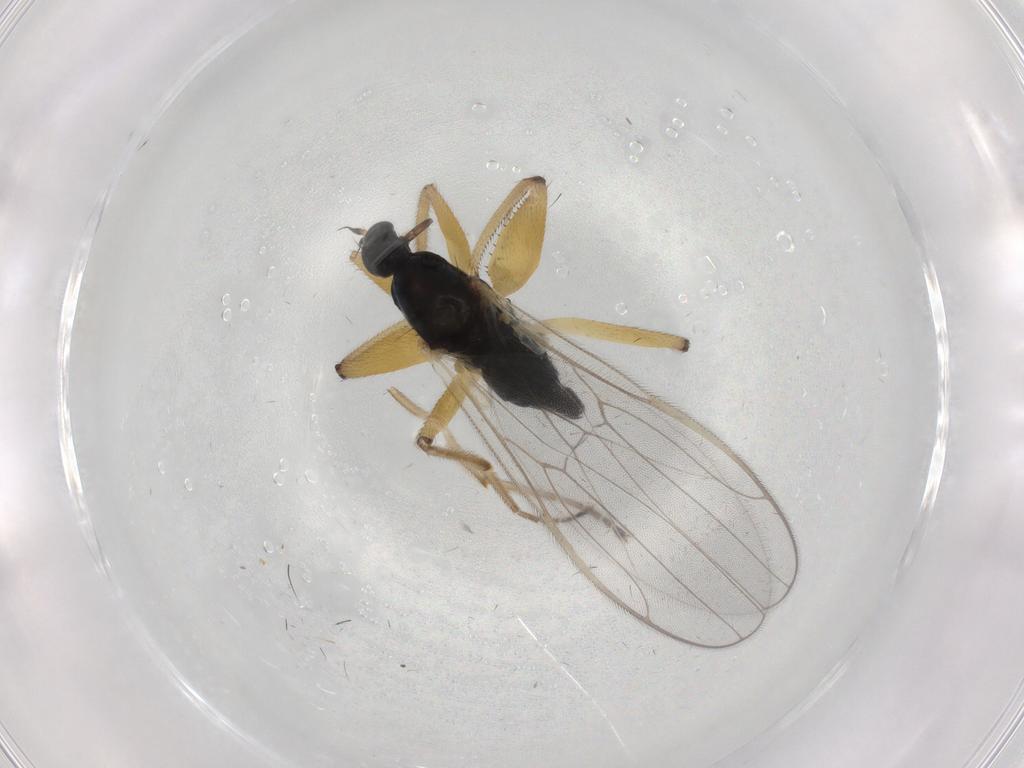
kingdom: Animalia
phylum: Arthropoda
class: Insecta
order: Diptera
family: Hybotidae
